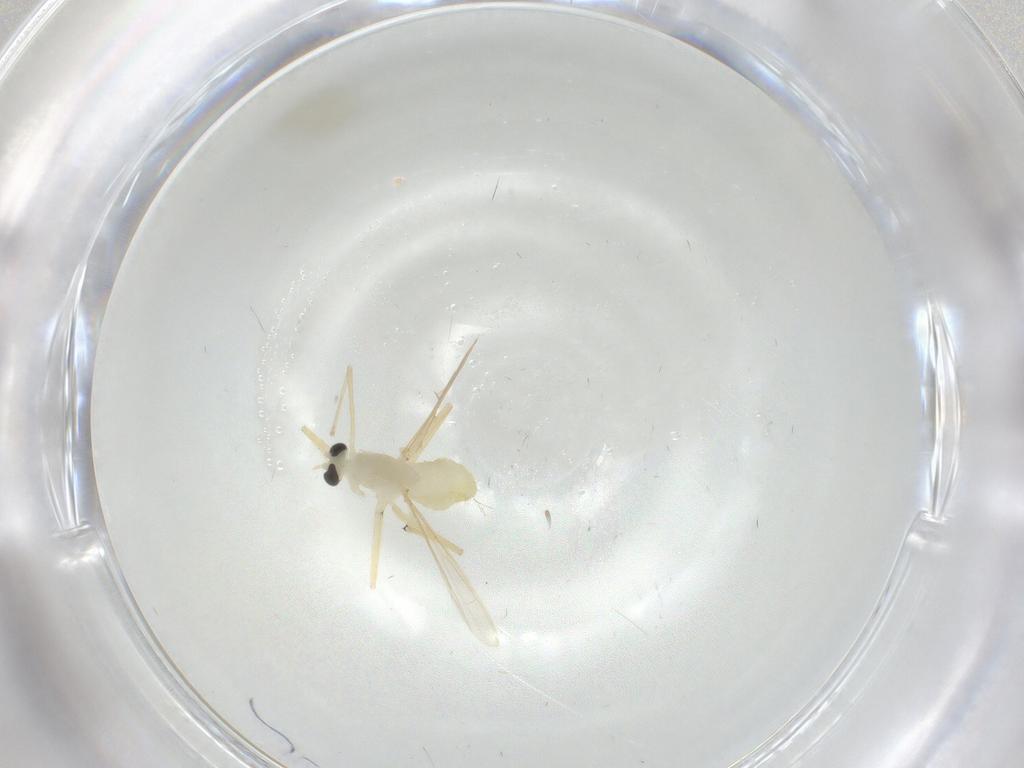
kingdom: Animalia
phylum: Arthropoda
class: Insecta
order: Diptera
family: Chironomidae
